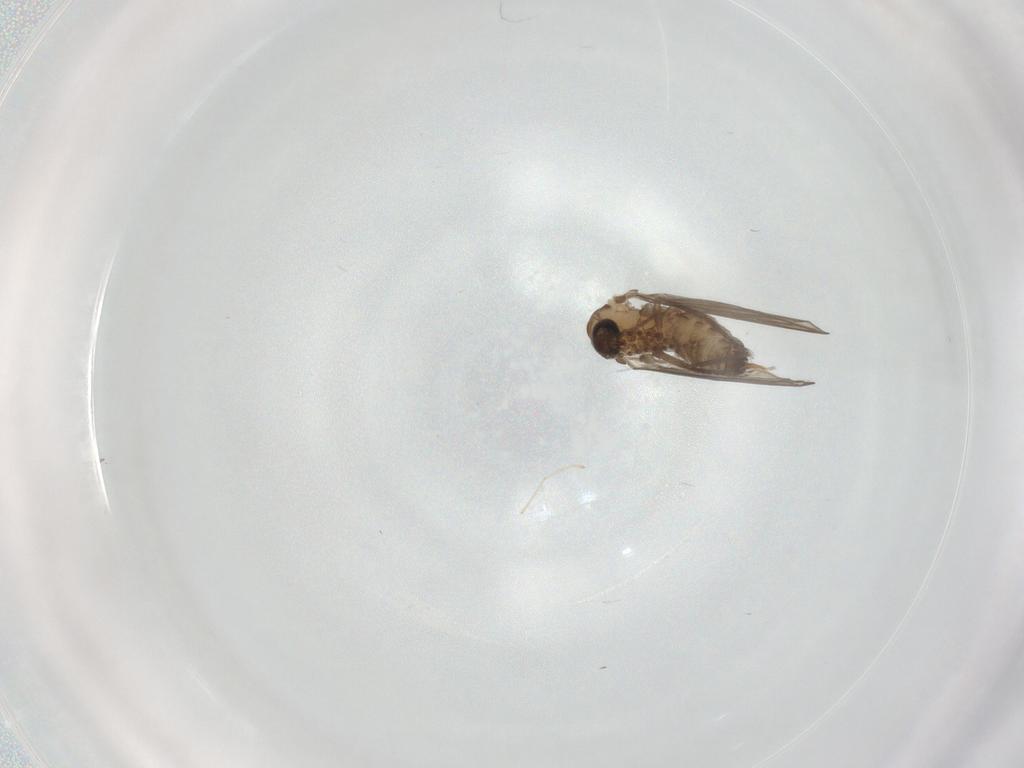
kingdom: Animalia
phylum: Arthropoda
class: Insecta
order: Diptera
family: Psychodidae
